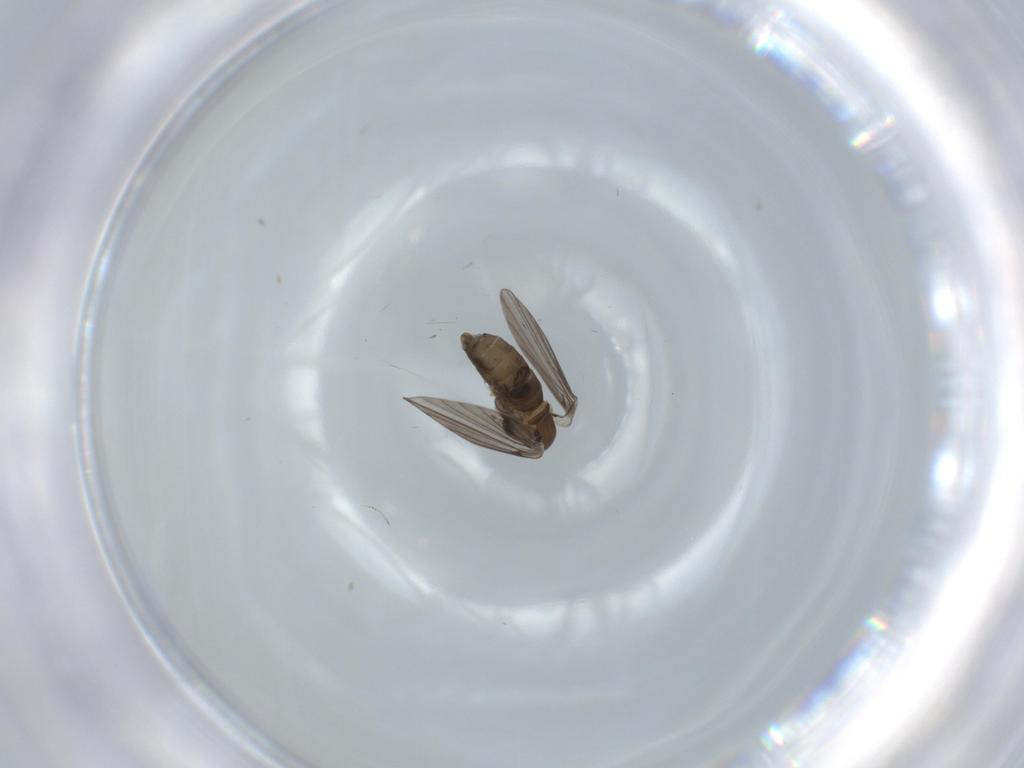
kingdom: Animalia
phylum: Arthropoda
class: Insecta
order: Diptera
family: Psychodidae
